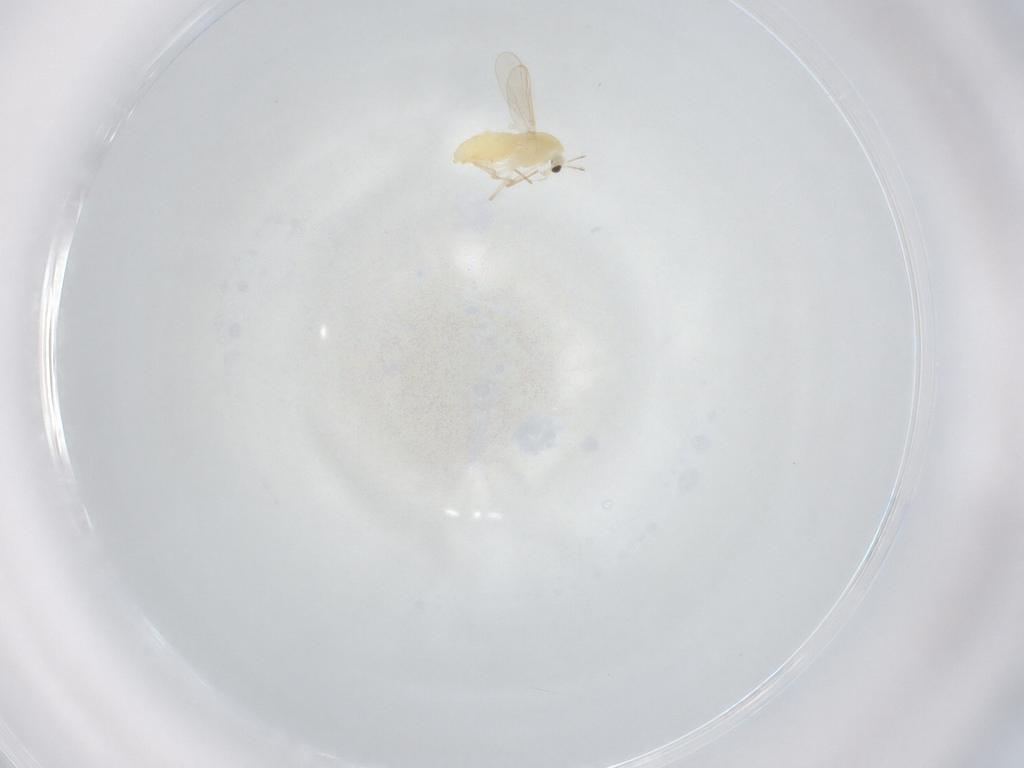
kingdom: Animalia
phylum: Arthropoda
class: Insecta
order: Diptera
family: Chironomidae
